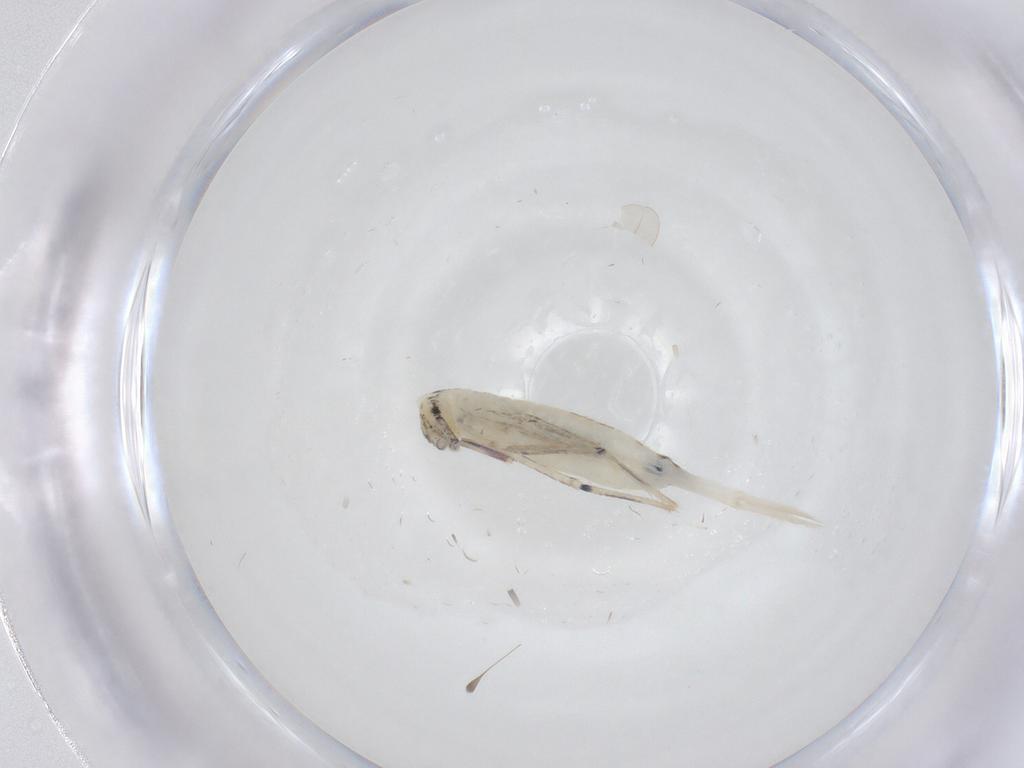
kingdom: Animalia
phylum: Arthropoda
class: Collembola
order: Entomobryomorpha
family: Entomobryidae
